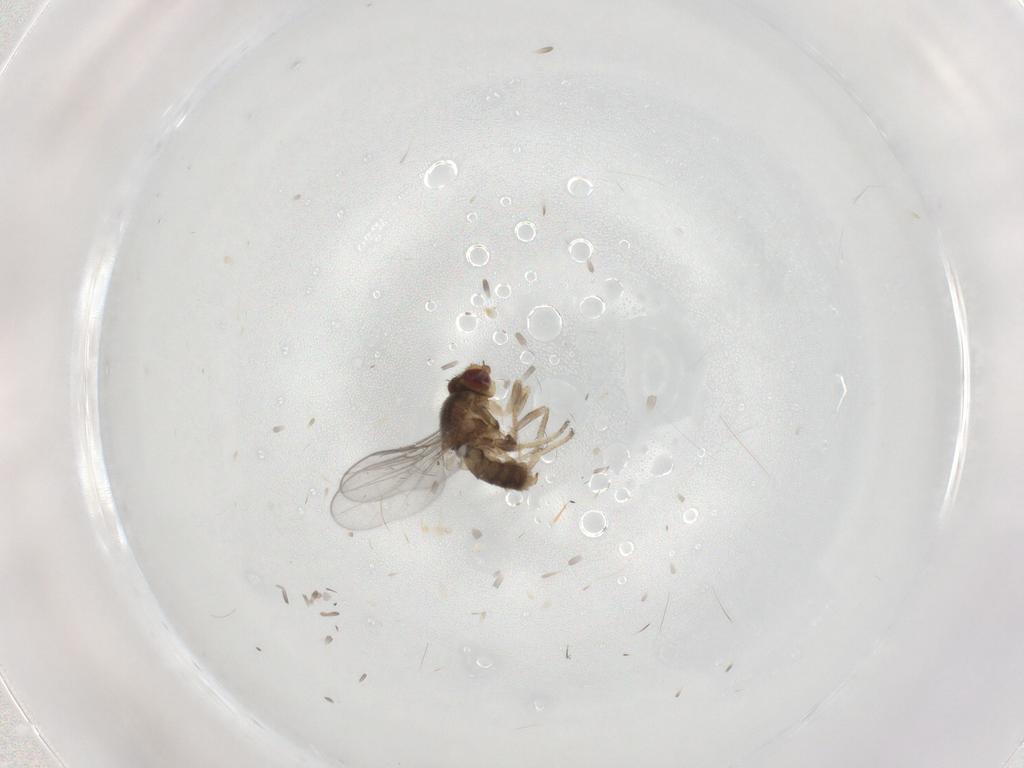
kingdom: Animalia
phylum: Arthropoda
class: Insecta
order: Diptera
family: Chloropidae
